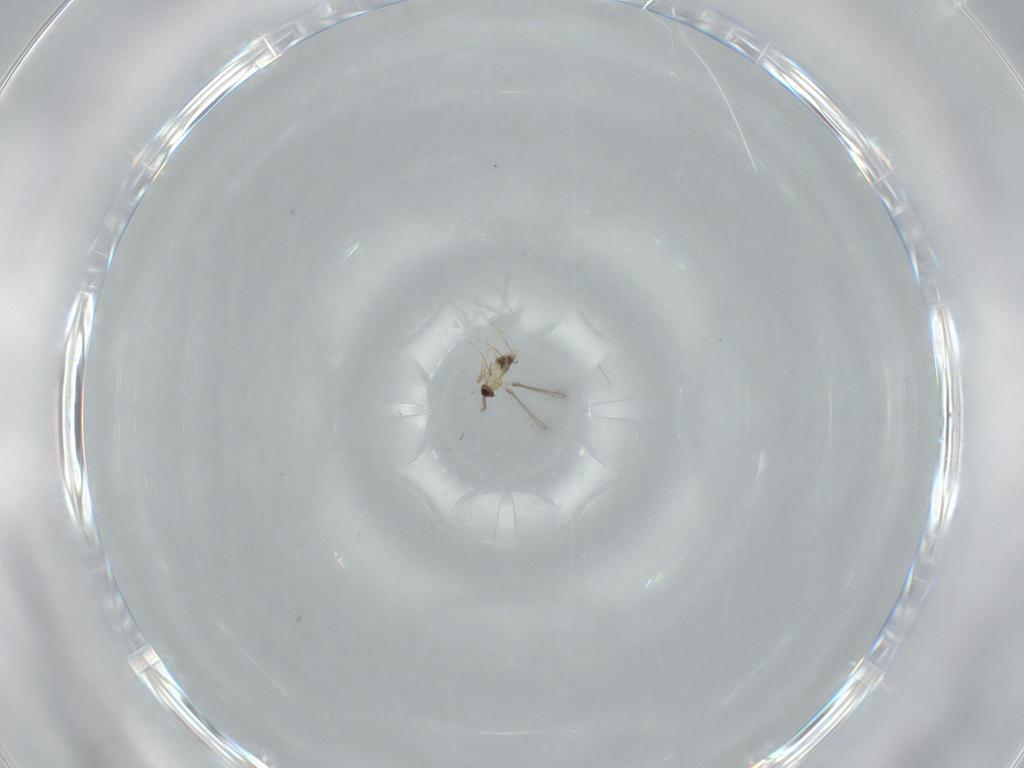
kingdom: Animalia
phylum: Arthropoda
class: Insecta
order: Hymenoptera
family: Mymaridae
